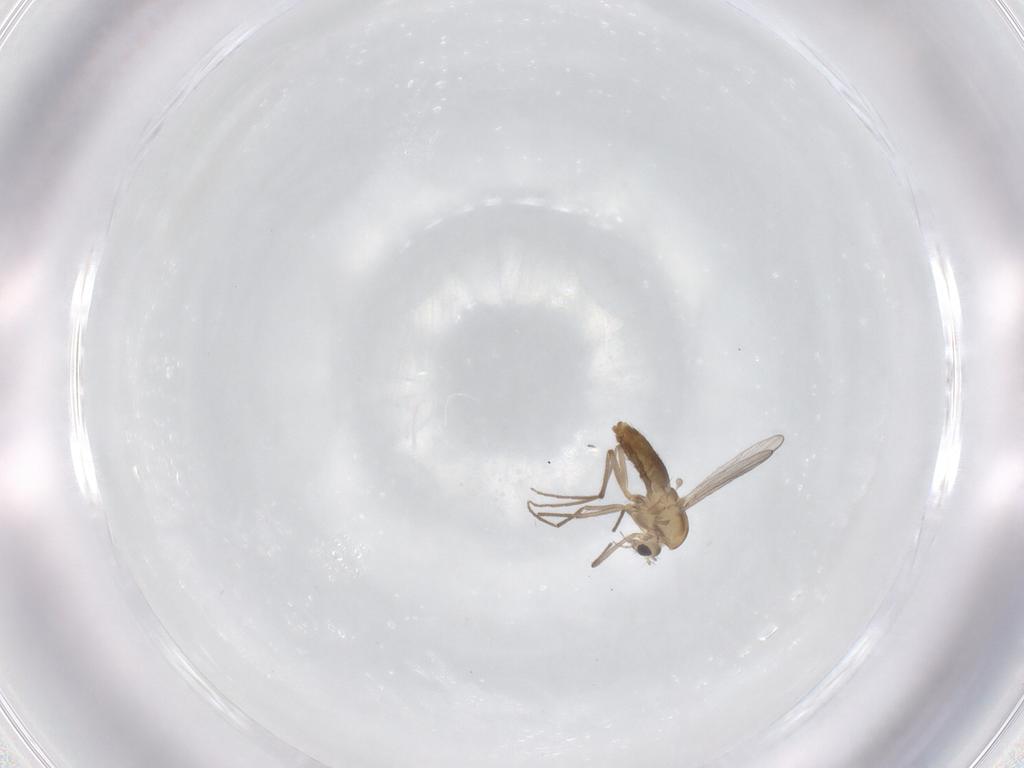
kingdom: Animalia
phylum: Arthropoda
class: Insecta
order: Diptera
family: Chironomidae
